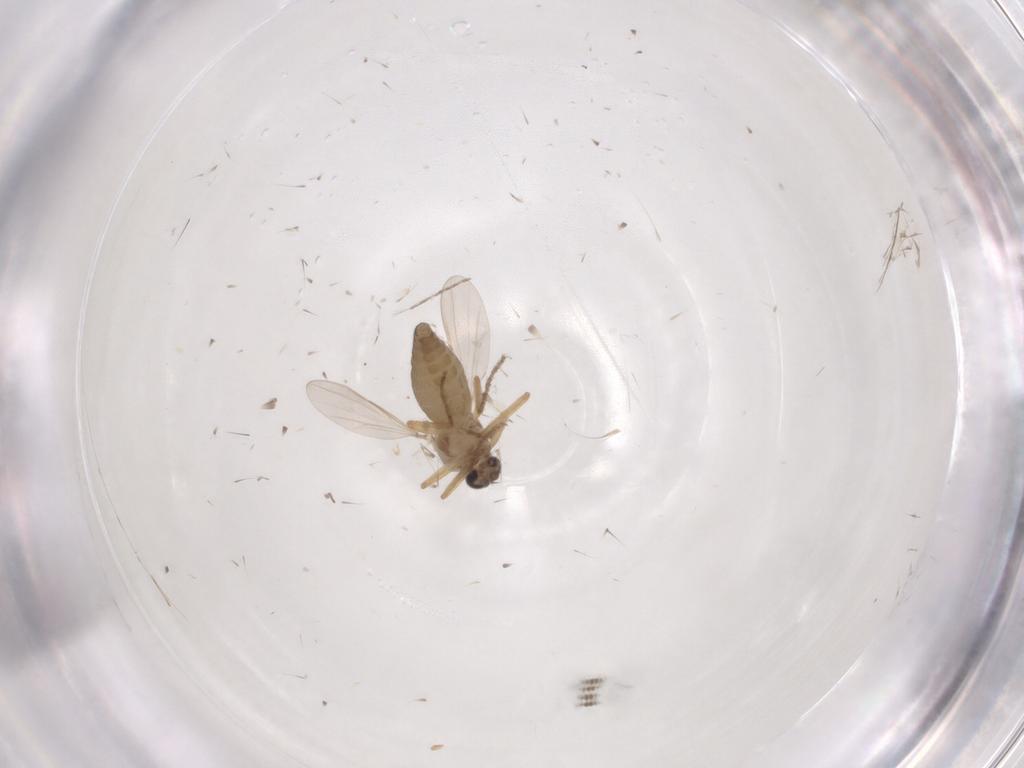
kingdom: Animalia
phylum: Arthropoda
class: Insecta
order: Diptera
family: Ceratopogonidae
